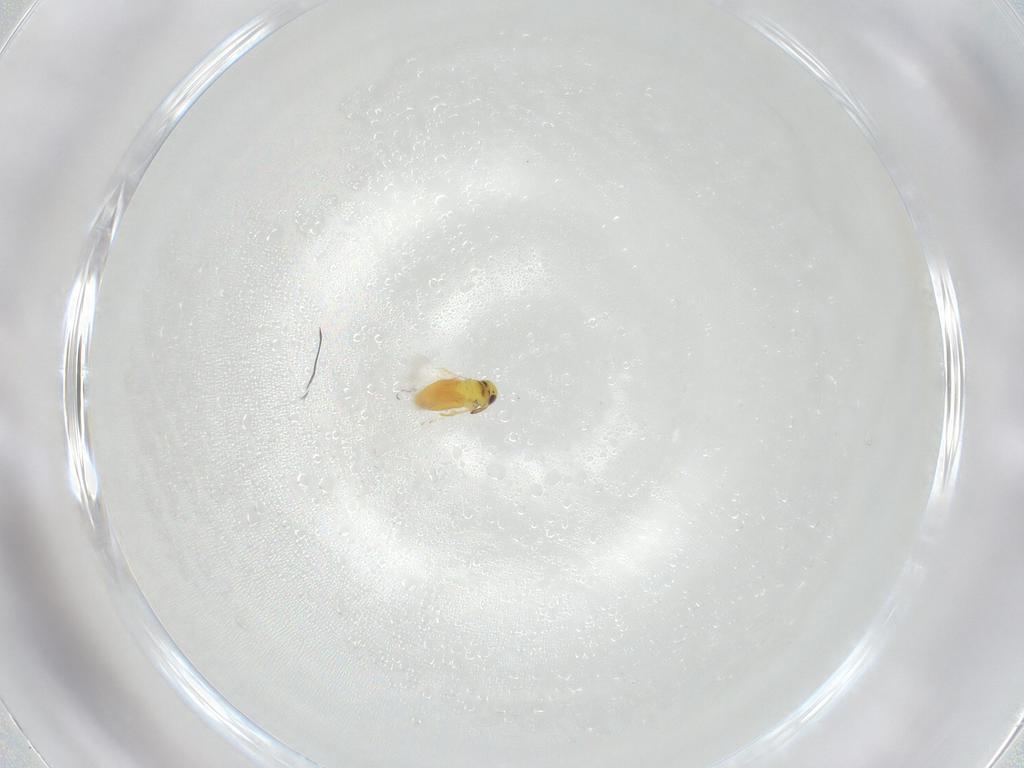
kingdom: Animalia
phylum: Arthropoda
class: Insecta
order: Hymenoptera
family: Signiphoridae
